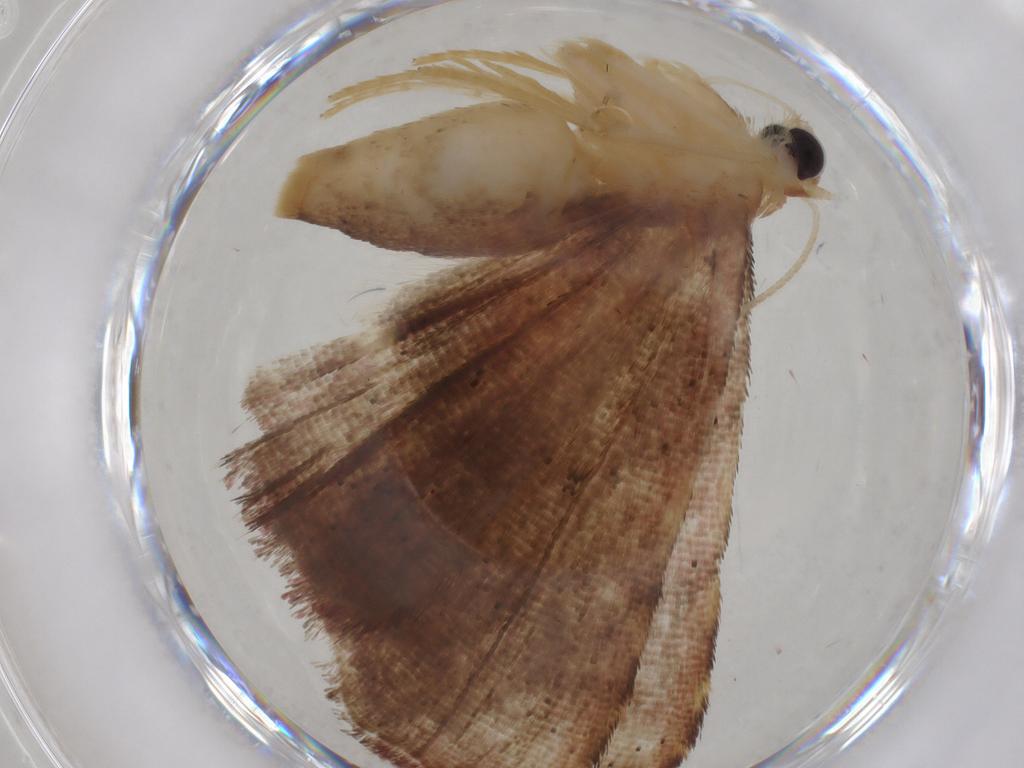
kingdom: Animalia
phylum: Arthropoda
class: Insecta
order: Lepidoptera
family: Erebidae
